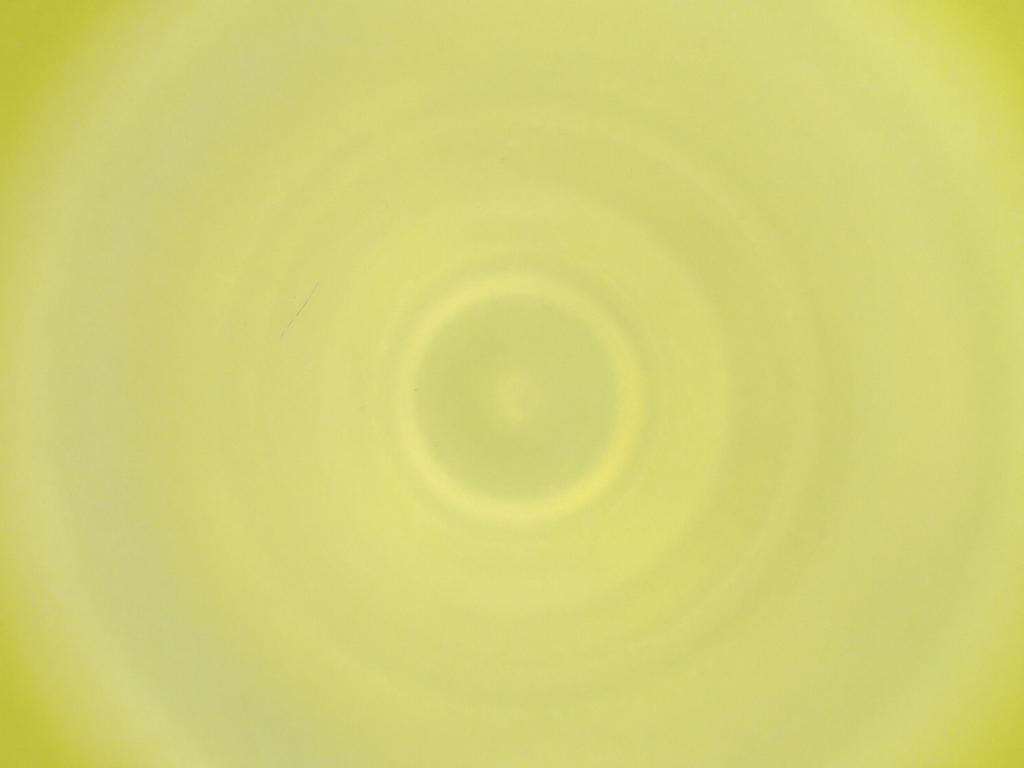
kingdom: Animalia
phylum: Arthropoda
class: Insecta
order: Diptera
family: Cecidomyiidae
